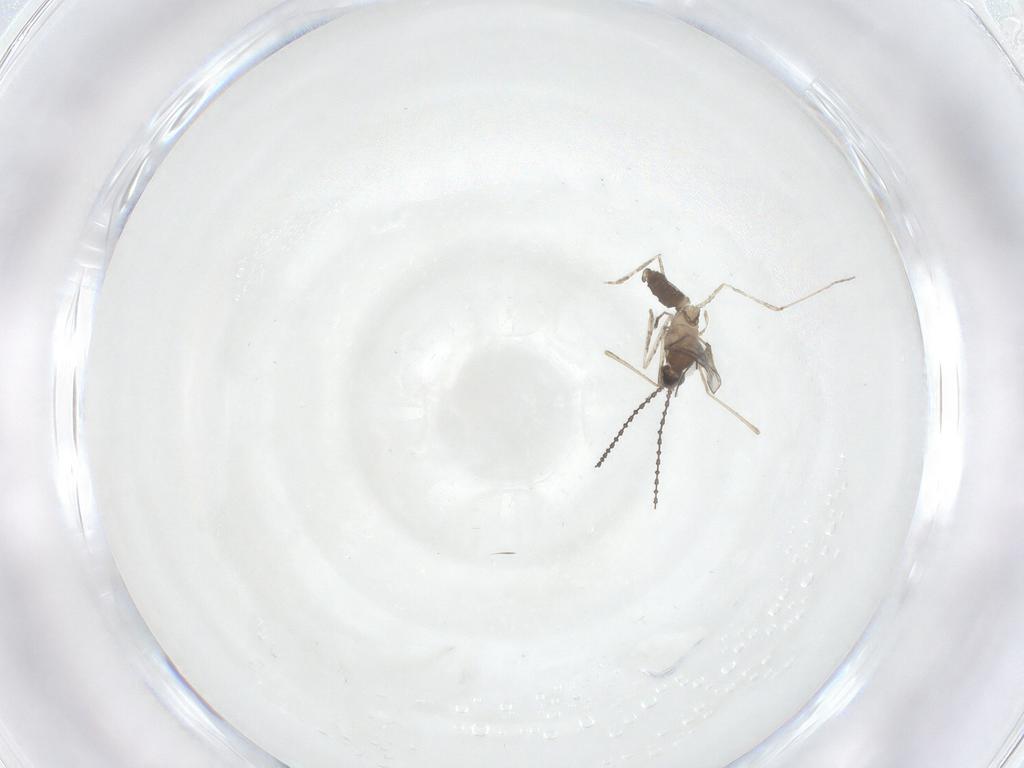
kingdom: Animalia
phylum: Arthropoda
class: Insecta
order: Diptera
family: Cecidomyiidae
